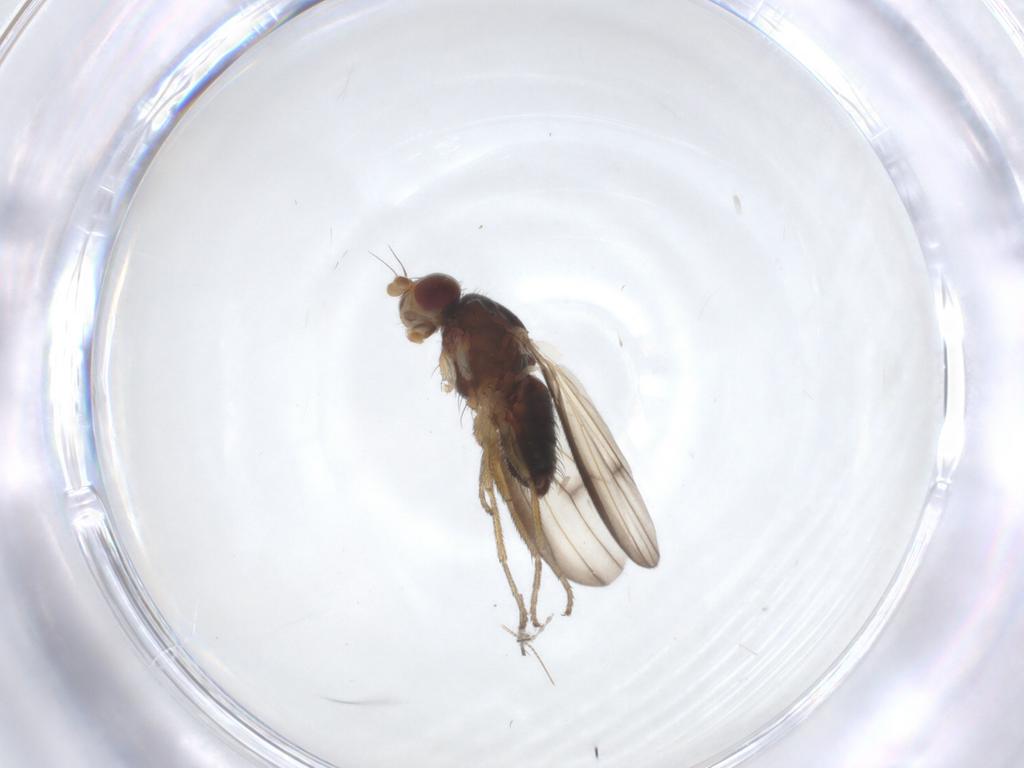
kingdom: Animalia
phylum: Arthropoda
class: Insecta
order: Diptera
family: Heleomyzidae
